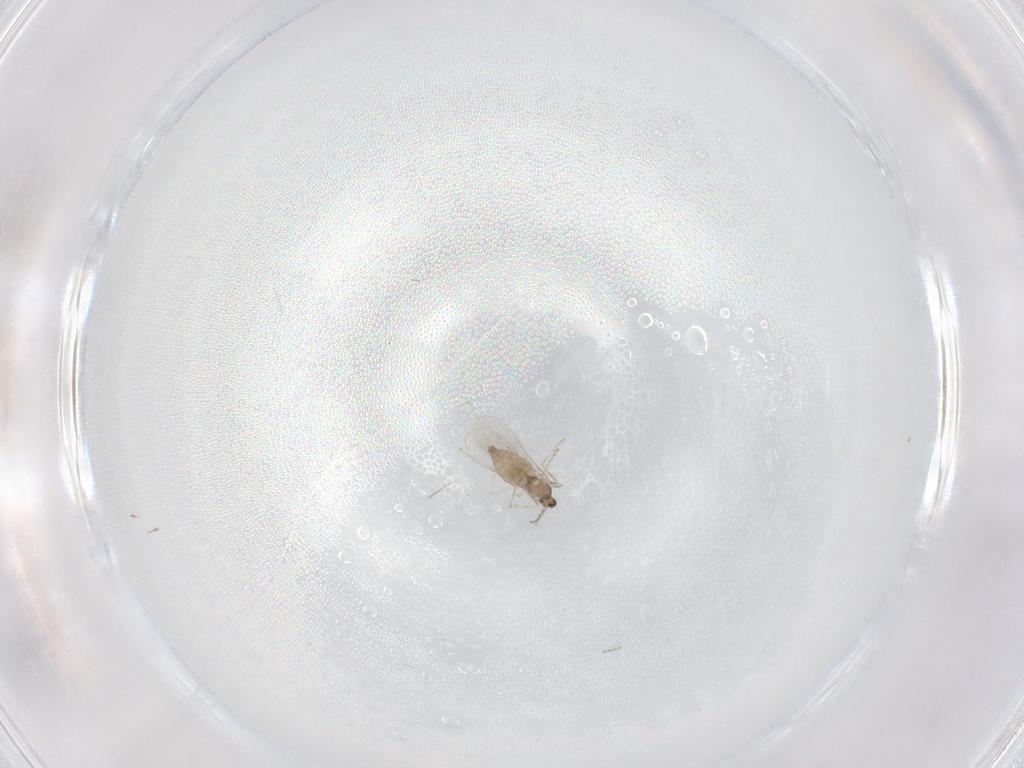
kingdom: Animalia
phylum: Arthropoda
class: Insecta
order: Diptera
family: Cecidomyiidae
